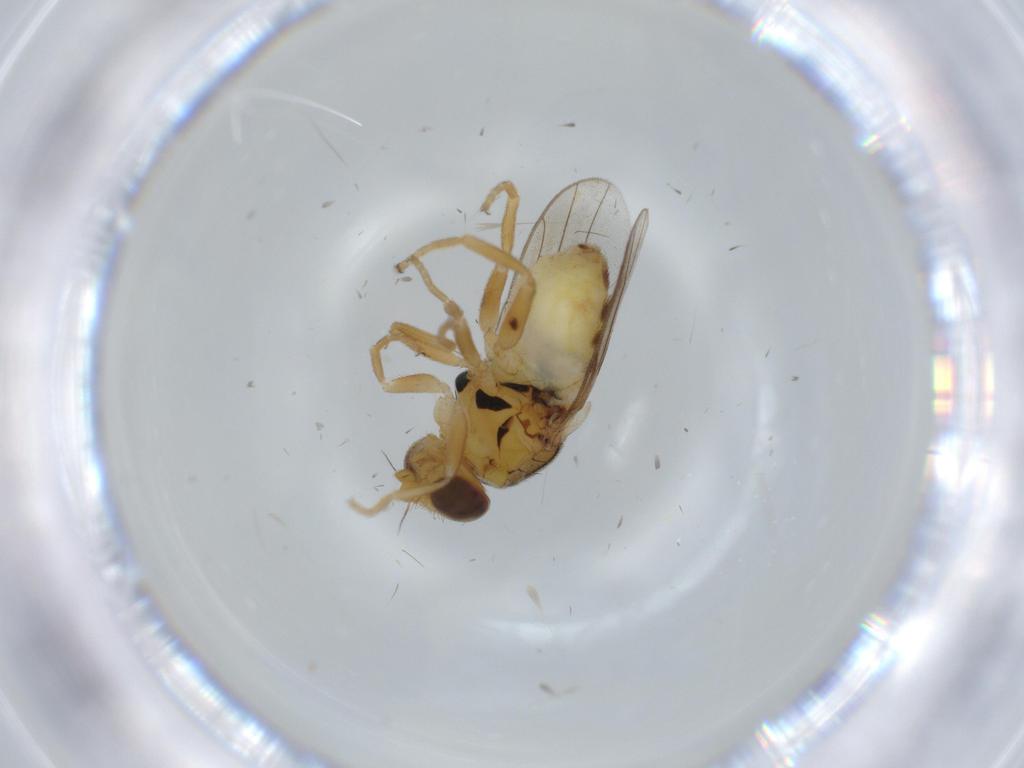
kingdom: Animalia
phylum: Arthropoda
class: Insecta
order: Diptera
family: Chloropidae
